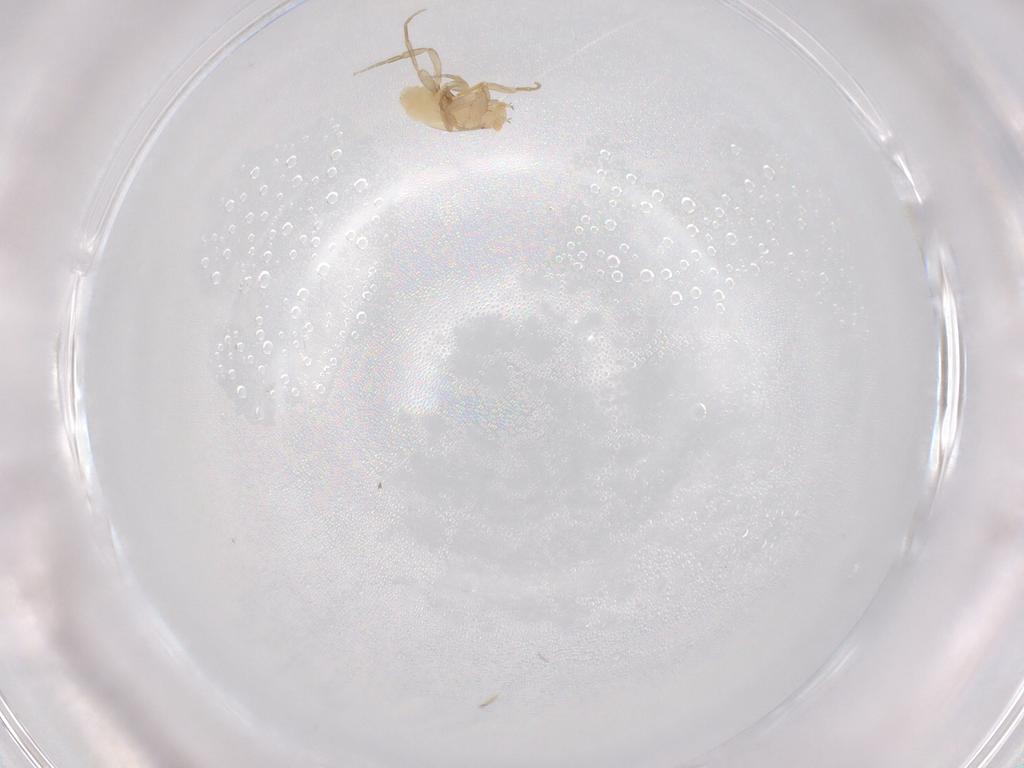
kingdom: Animalia
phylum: Arthropoda
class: Insecta
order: Diptera
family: Phoridae
